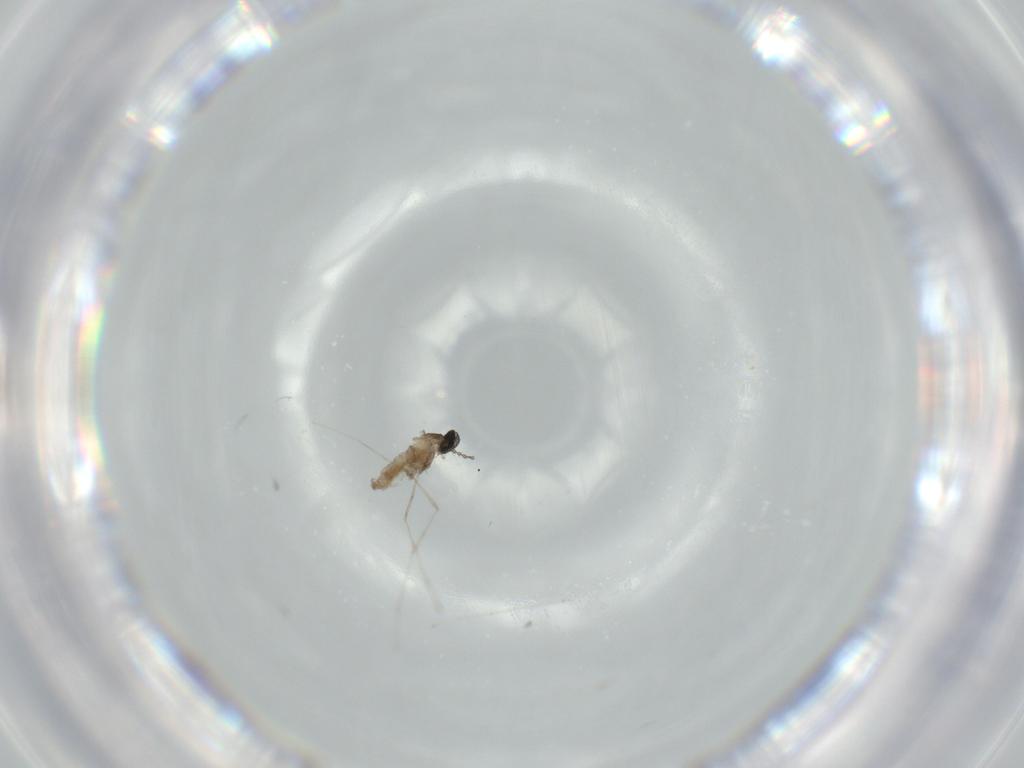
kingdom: Animalia
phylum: Arthropoda
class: Insecta
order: Diptera
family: Cecidomyiidae
